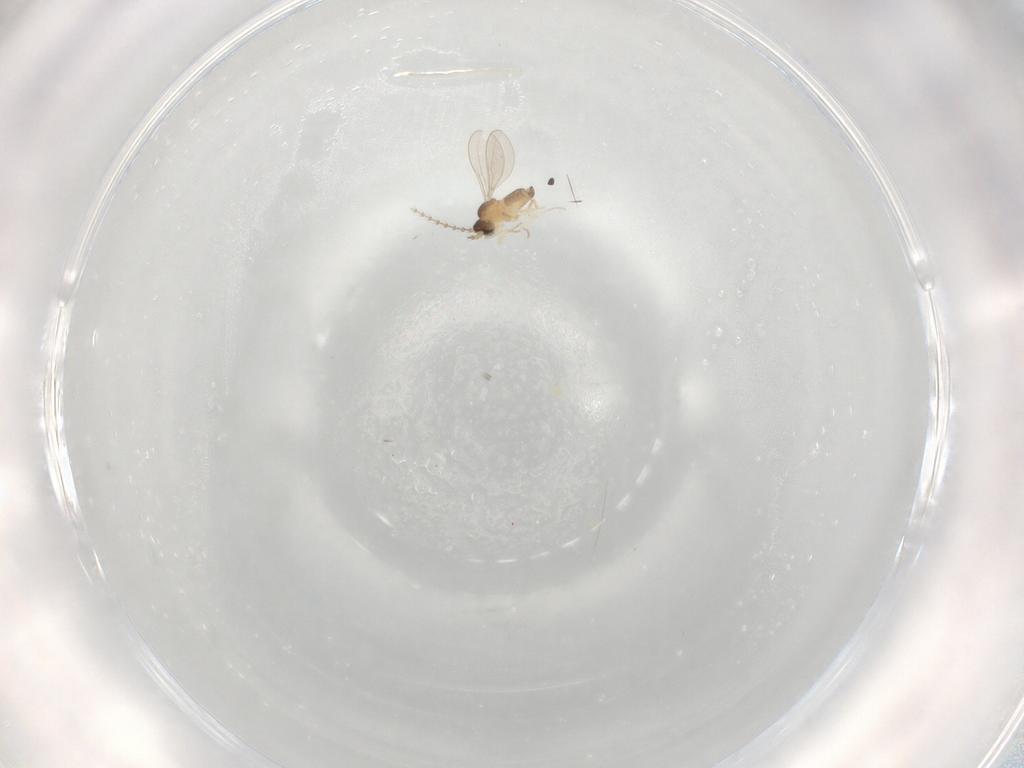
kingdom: Animalia
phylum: Arthropoda
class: Insecta
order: Diptera
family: Cecidomyiidae
